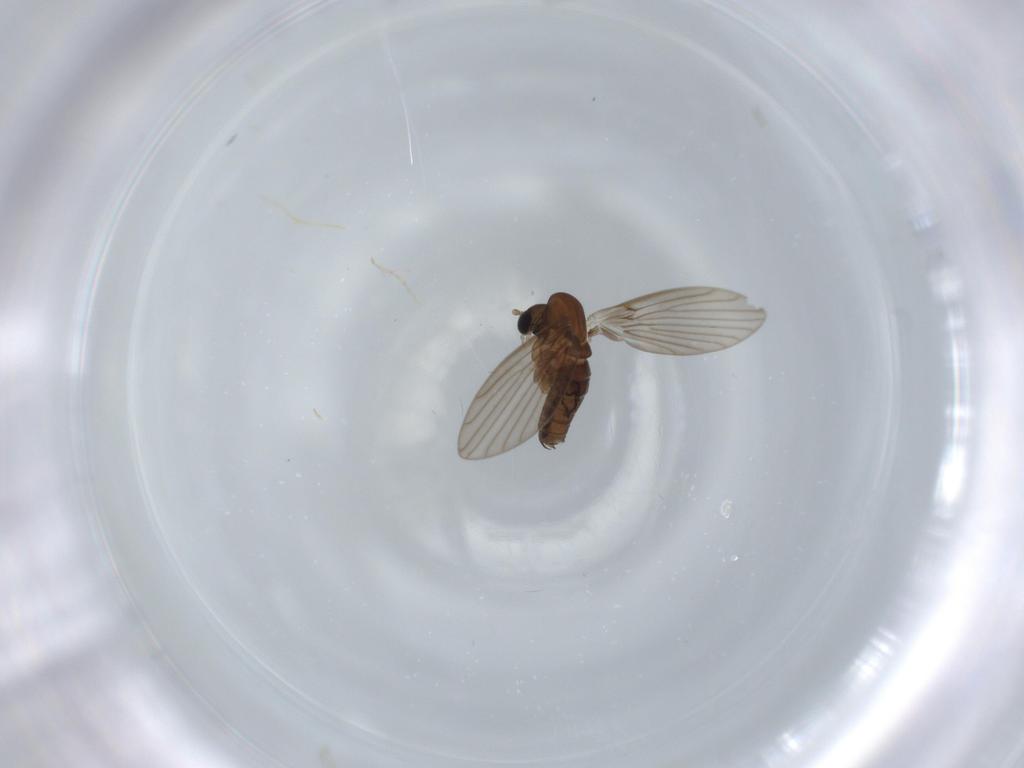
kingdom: Animalia
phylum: Arthropoda
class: Insecta
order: Diptera
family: Psychodidae
